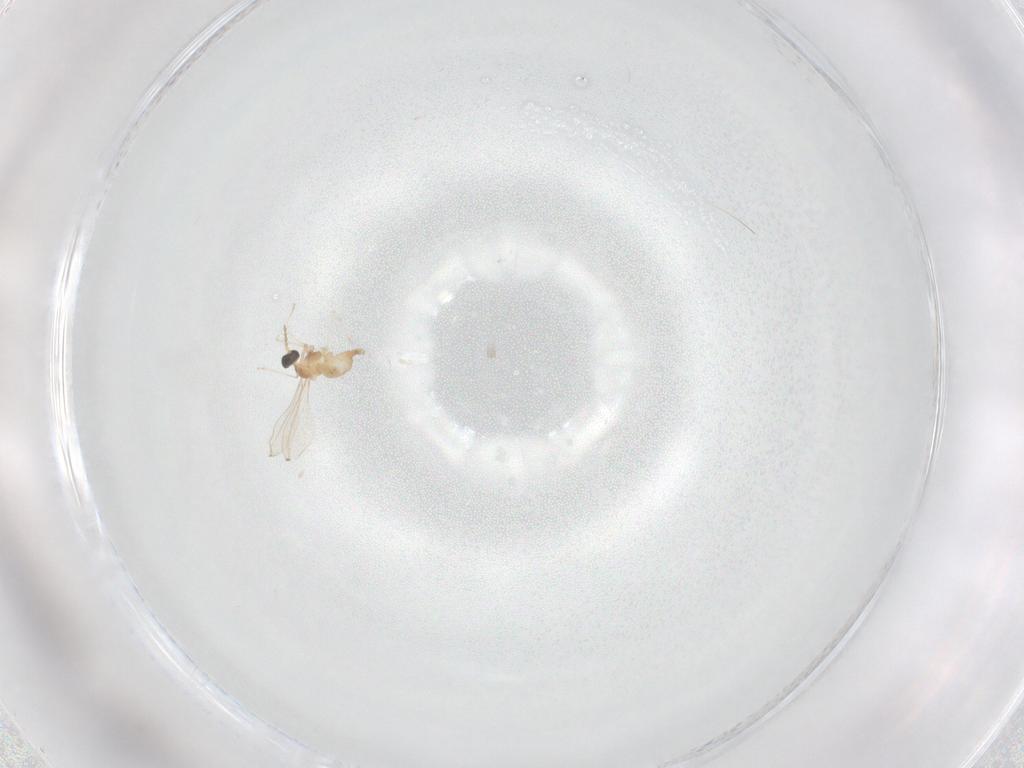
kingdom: Animalia
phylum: Arthropoda
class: Insecta
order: Diptera
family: Cecidomyiidae
